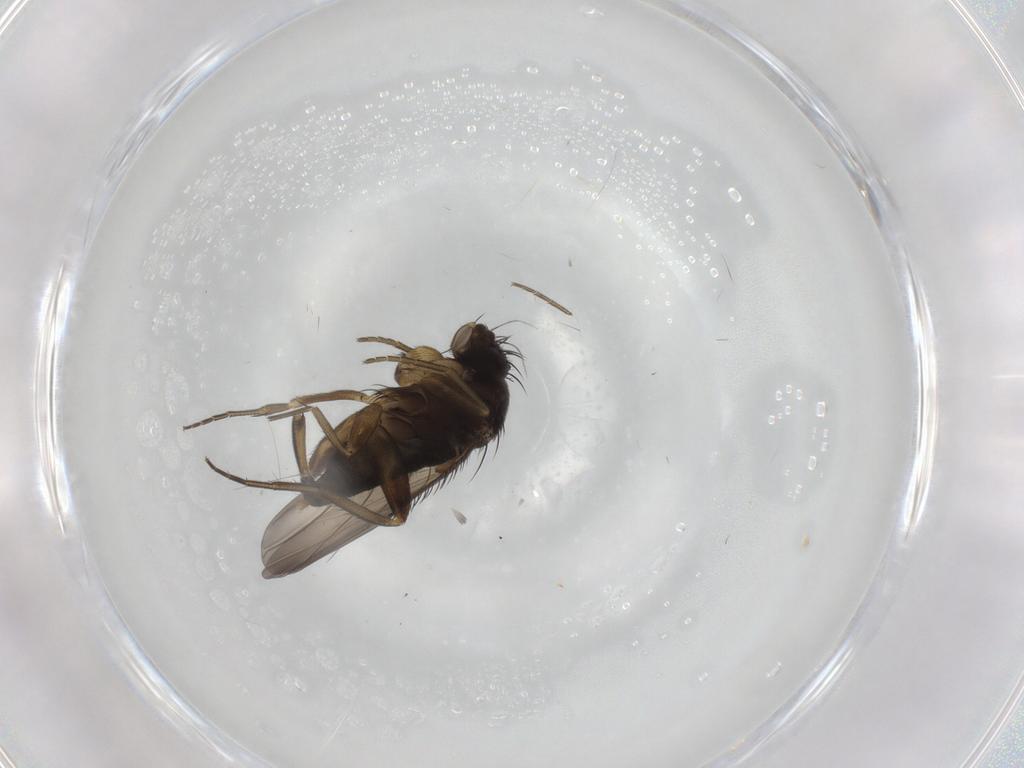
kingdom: Animalia
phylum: Arthropoda
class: Insecta
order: Diptera
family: Phoridae
